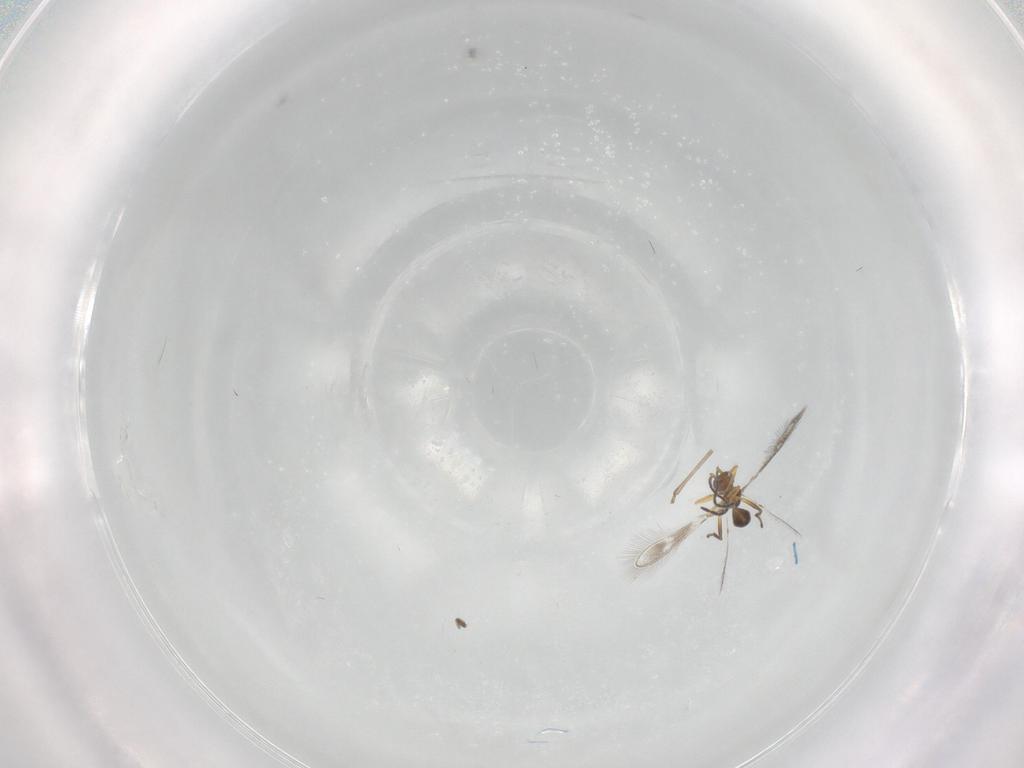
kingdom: Animalia
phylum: Arthropoda
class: Insecta
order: Hymenoptera
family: Mymaridae
